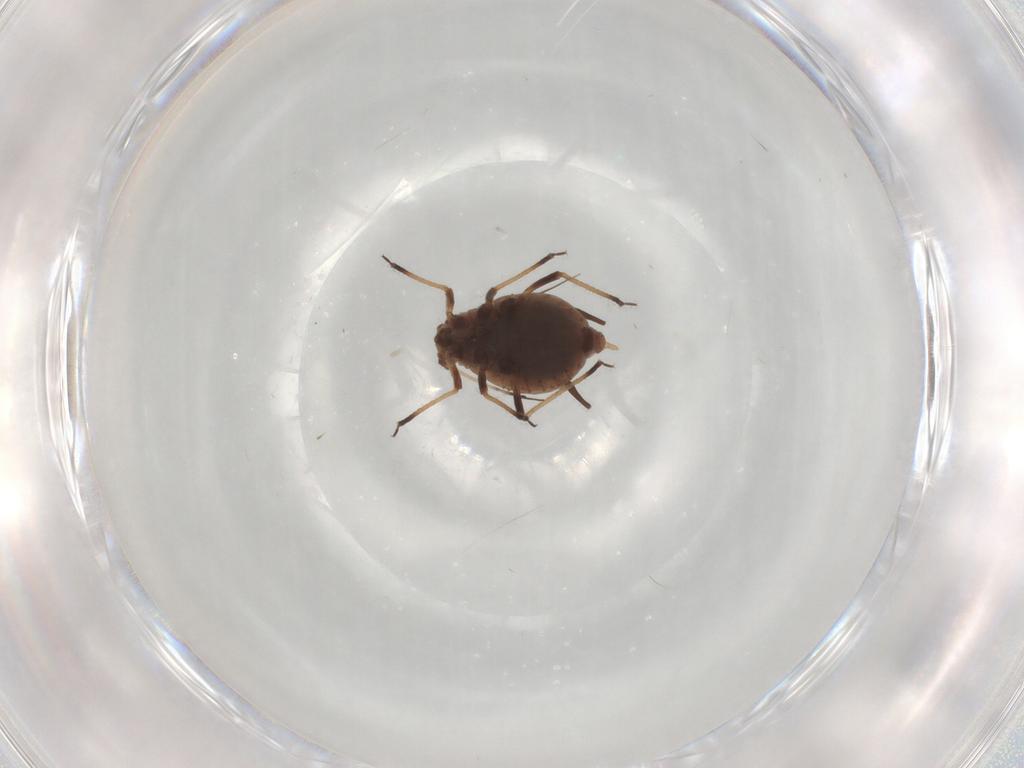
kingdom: Animalia
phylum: Arthropoda
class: Insecta
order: Hemiptera
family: Aphididae
